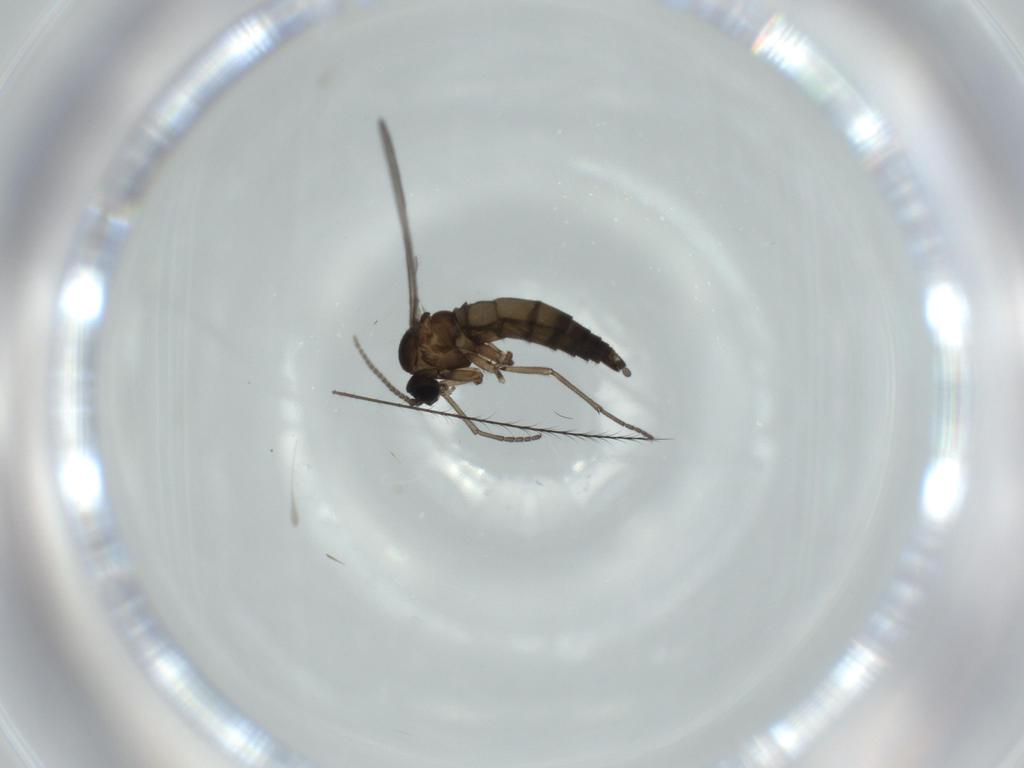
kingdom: Animalia
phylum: Arthropoda
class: Insecta
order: Diptera
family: Sciaridae
